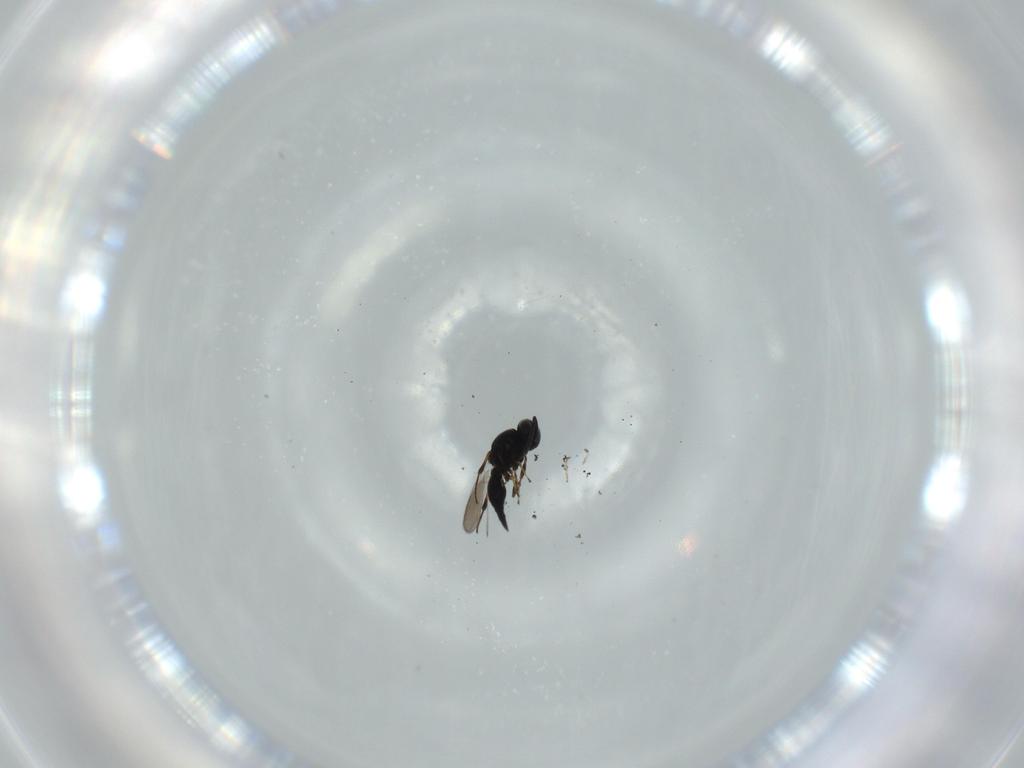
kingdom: Animalia
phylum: Arthropoda
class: Insecta
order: Hymenoptera
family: Platygastridae
